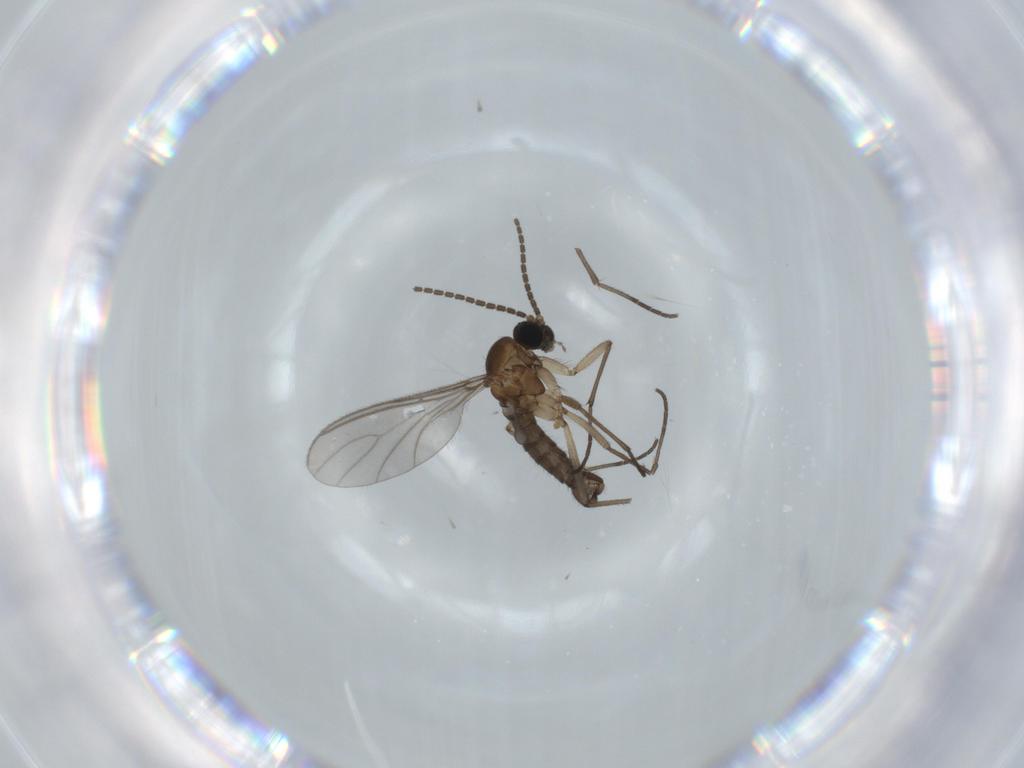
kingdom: Animalia
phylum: Arthropoda
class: Insecta
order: Diptera
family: Sciaridae
